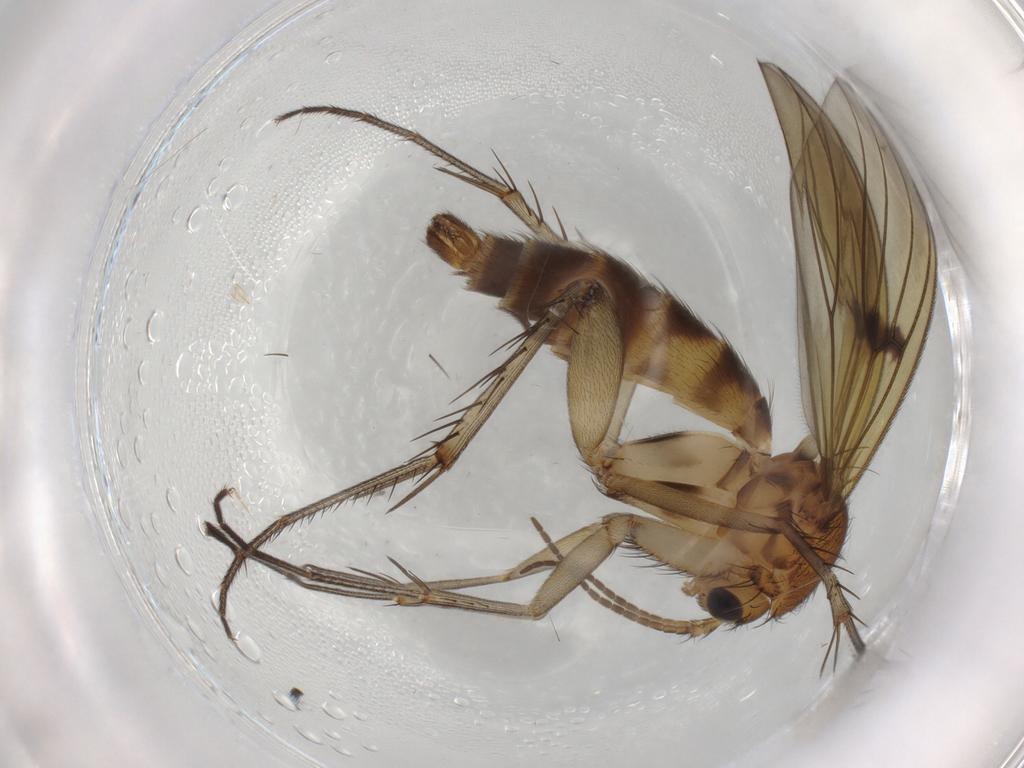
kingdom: Animalia
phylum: Arthropoda
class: Insecta
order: Diptera
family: Mycetophilidae
